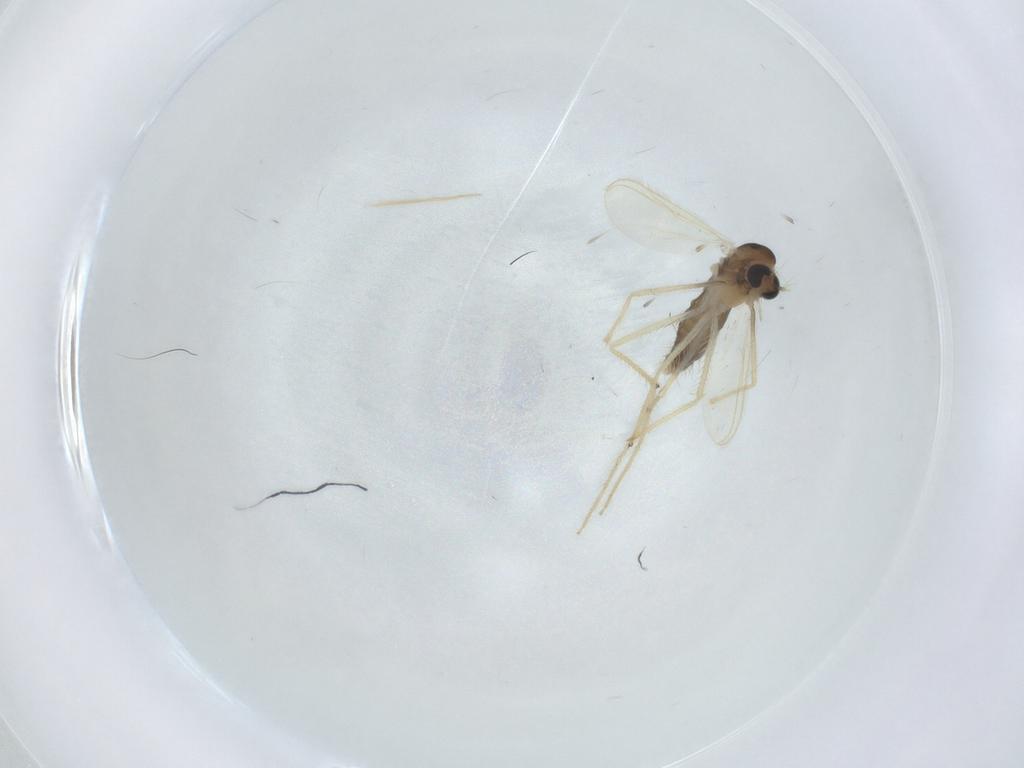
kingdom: Animalia
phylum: Arthropoda
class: Insecta
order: Diptera
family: Chironomidae
